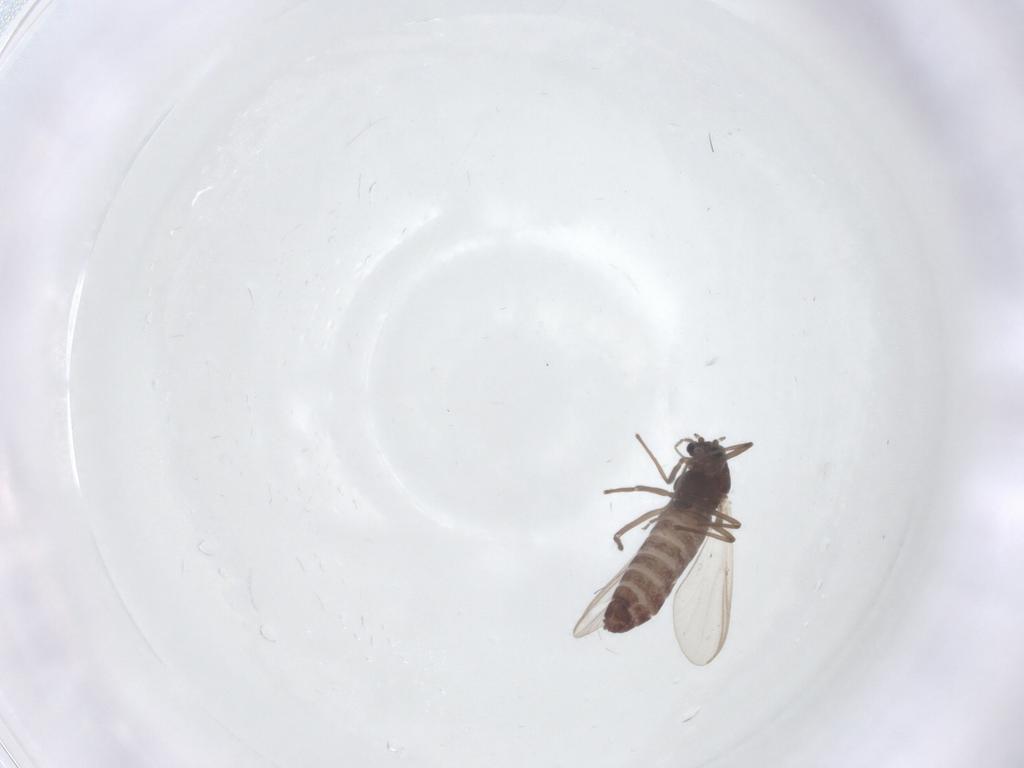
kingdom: Animalia
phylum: Arthropoda
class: Insecta
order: Diptera
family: Chironomidae
